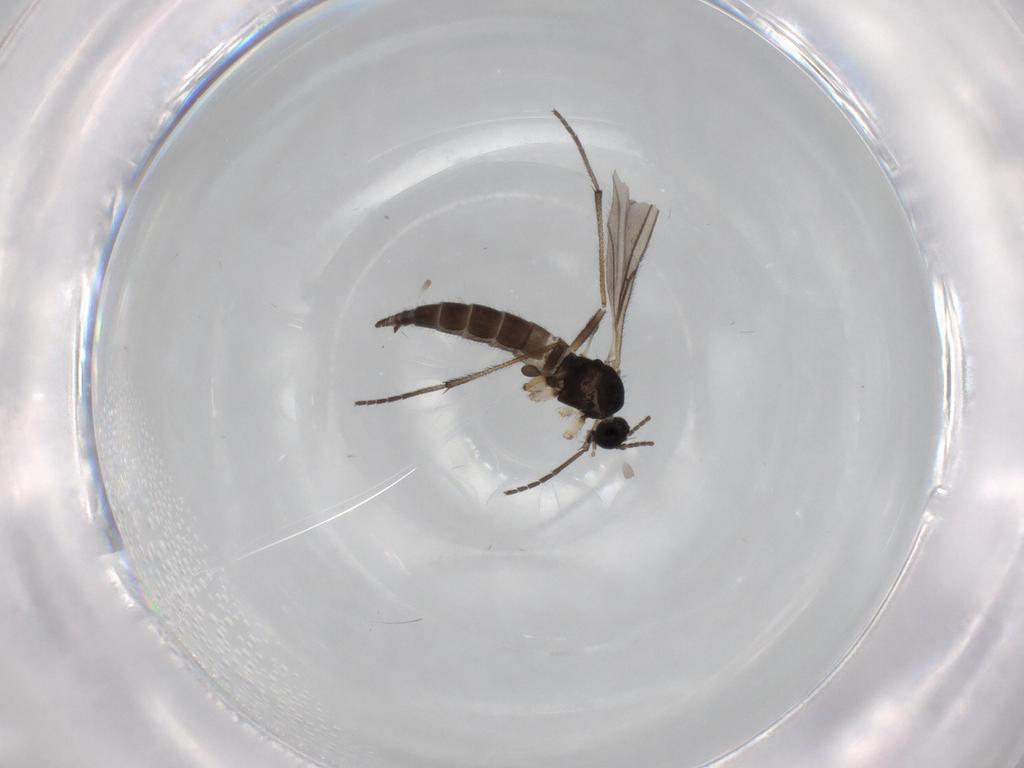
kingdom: Animalia
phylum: Arthropoda
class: Insecta
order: Diptera
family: Sciaridae
